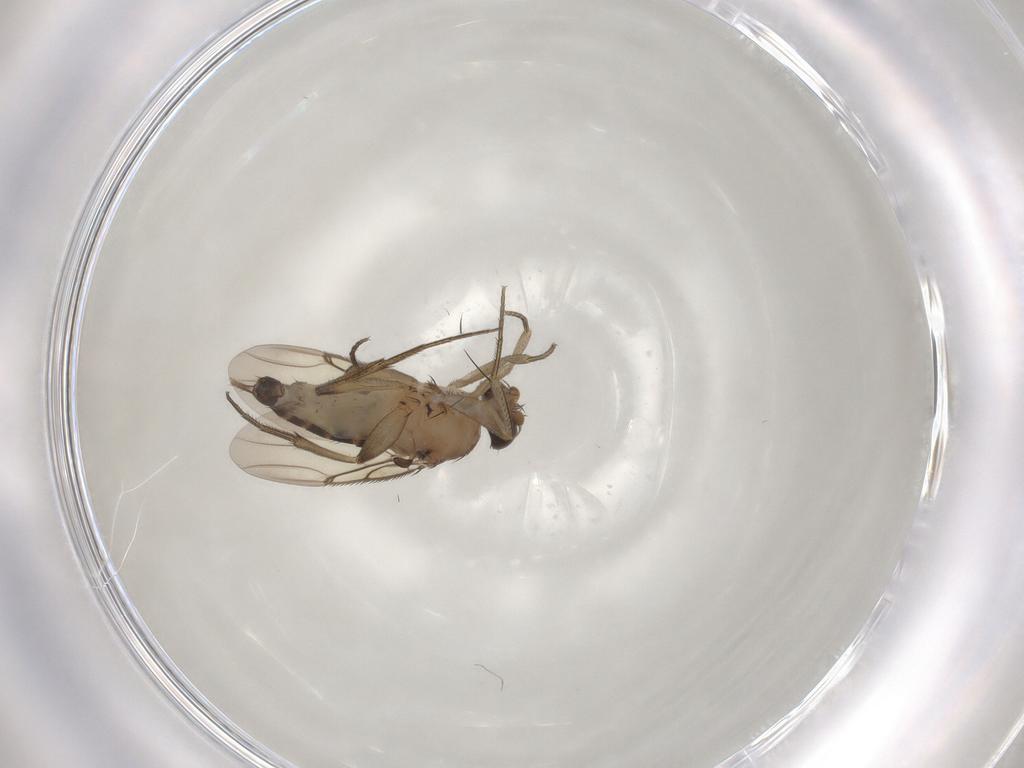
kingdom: Animalia
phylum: Arthropoda
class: Insecta
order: Diptera
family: Phoridae
